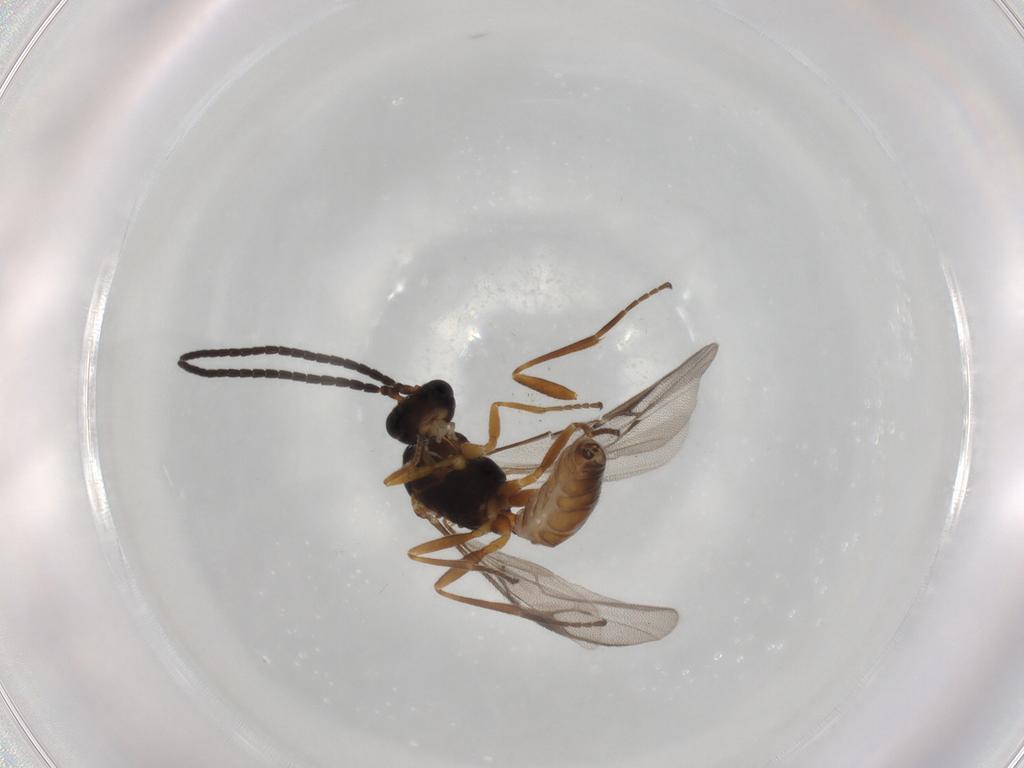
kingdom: Animalia
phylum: Arthropoda
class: Insecta
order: Hymenoptera
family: Braconidae
